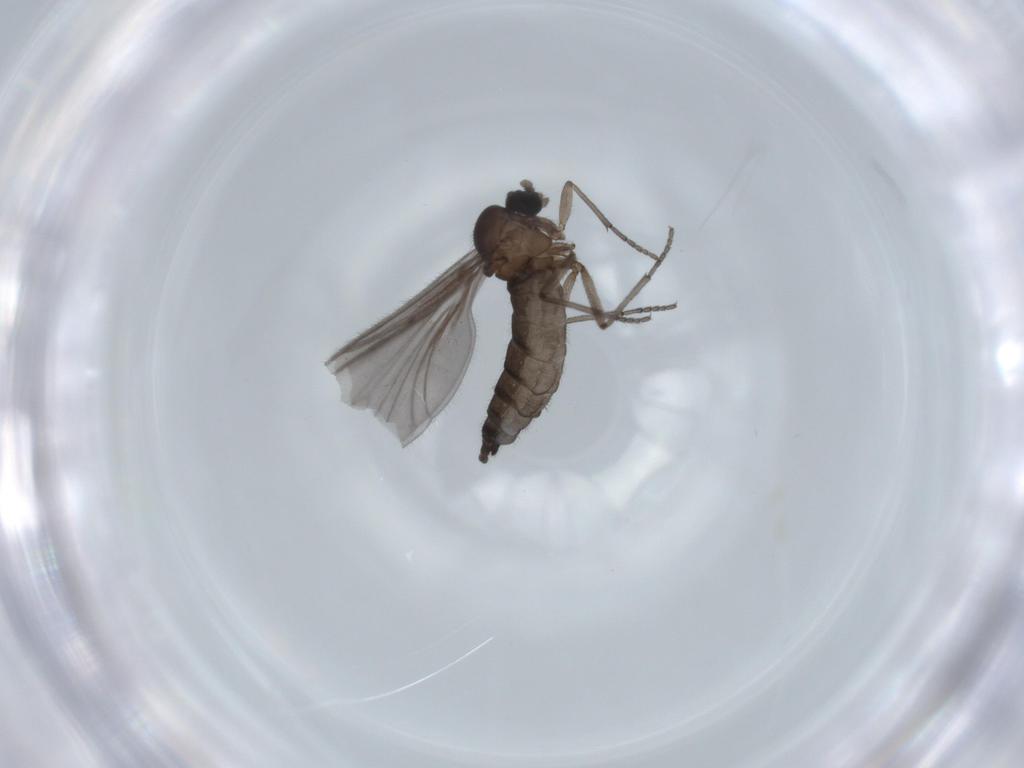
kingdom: Animalia
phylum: Arthropoda
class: Insecta
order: Diptera
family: Sciaridae
